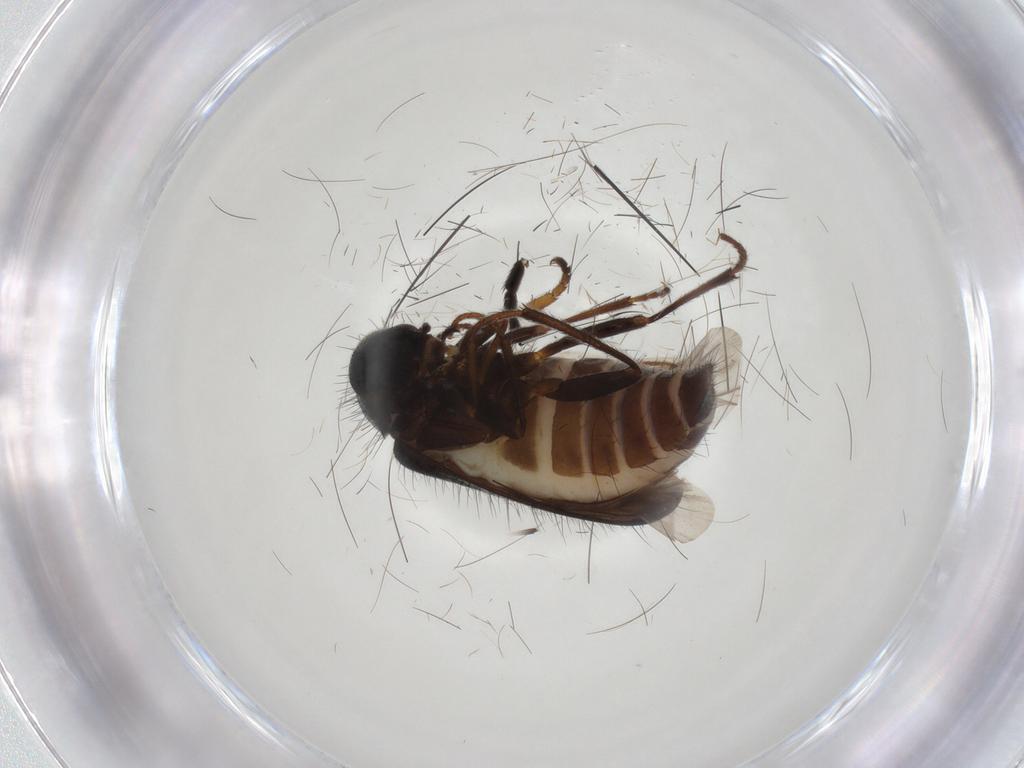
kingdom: Animalia
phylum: Arthropoda
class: Insecta
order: Coleoptera
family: Melyridae
